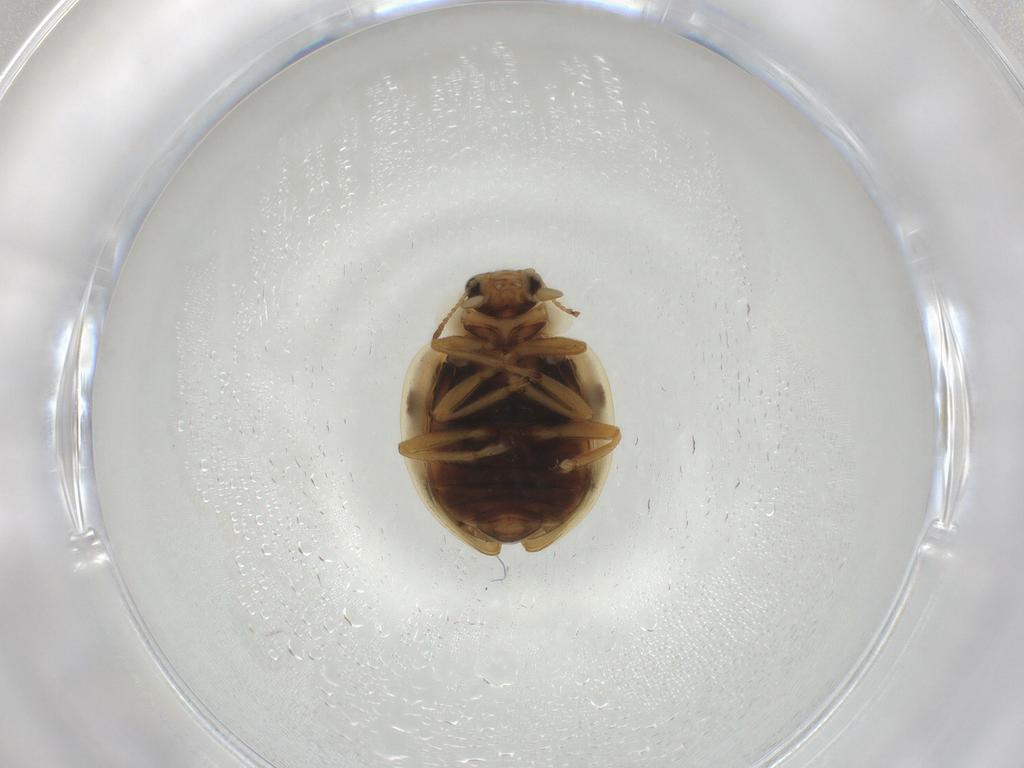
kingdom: Animalia
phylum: Arthropoda
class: Insecta
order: Coleoptera
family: Coccinellidae
